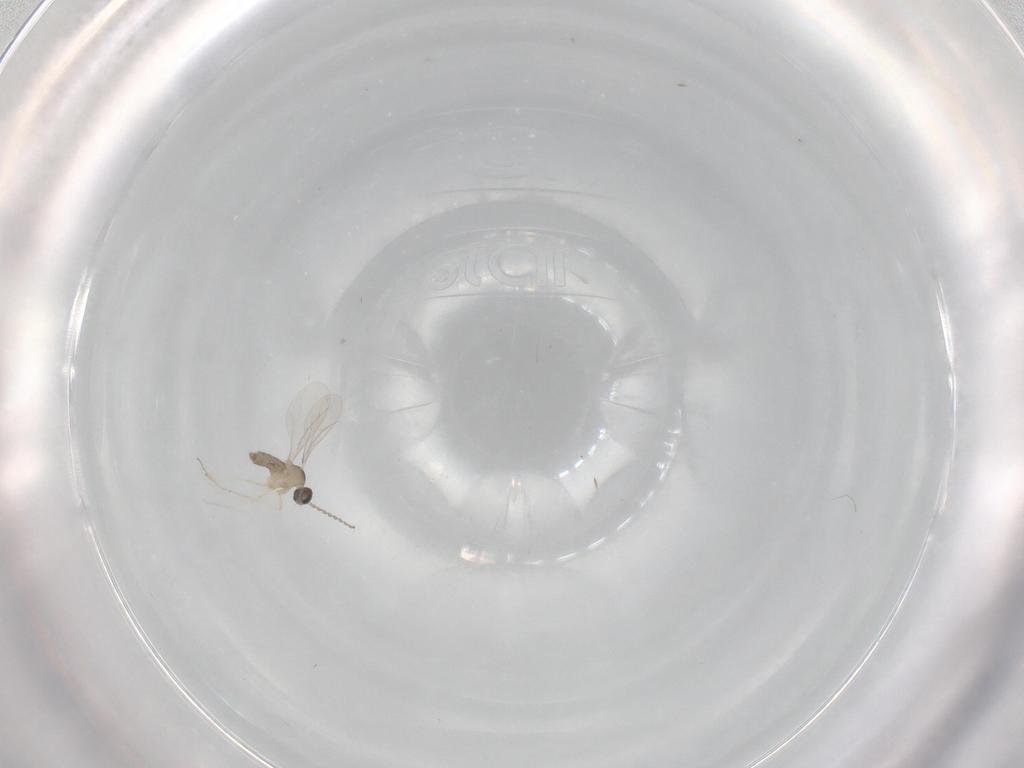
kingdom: Animalia
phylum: Arthropoda
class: Insecta
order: Diptera
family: Cecidomyiidae
